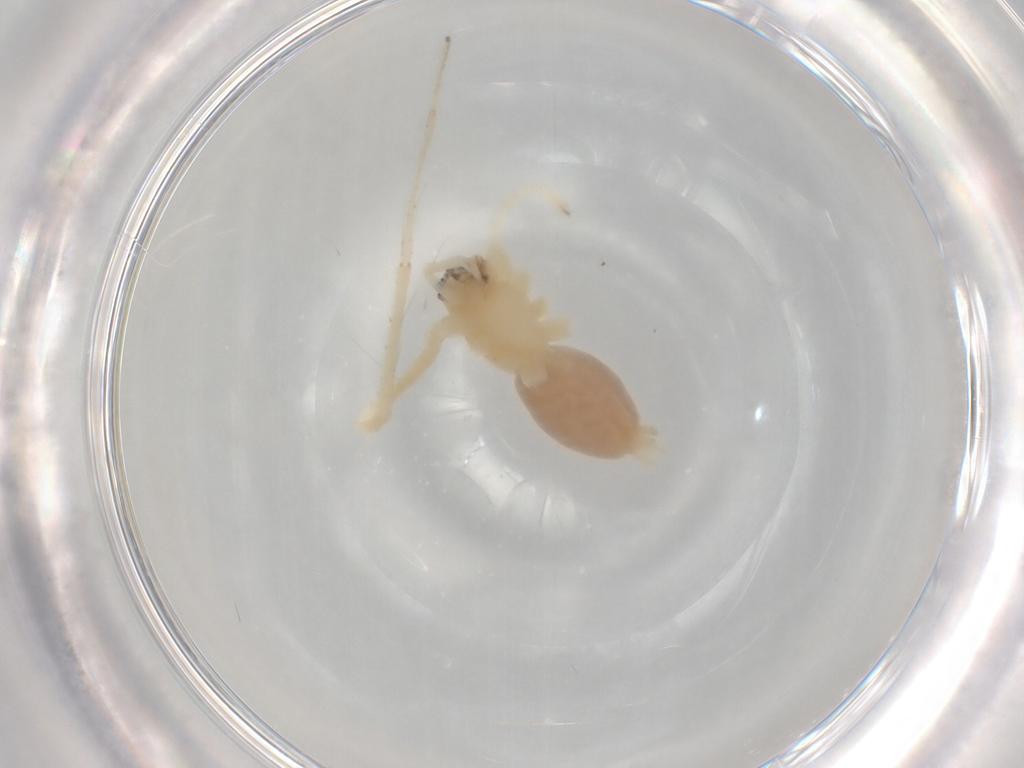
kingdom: Animalia
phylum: Arthropoda
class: Arachnida
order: Araneae
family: Anyphaenidae
